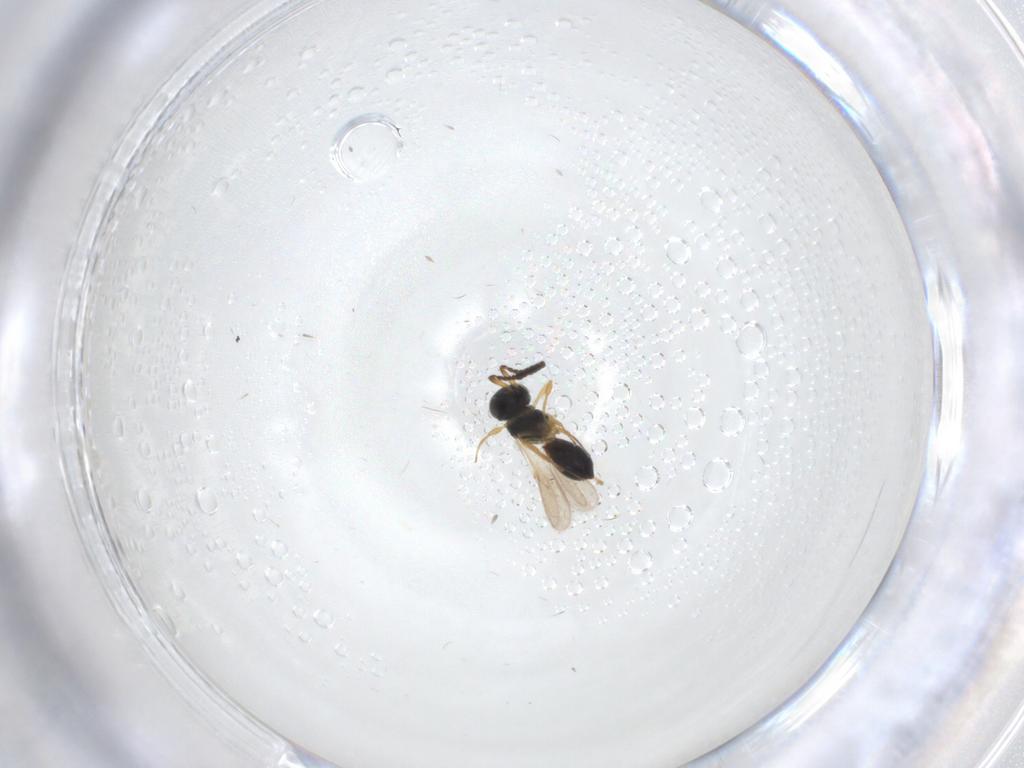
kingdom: Animalia
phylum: Arthropoda
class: Insecta
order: Hymenoptera
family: Scelionidae
